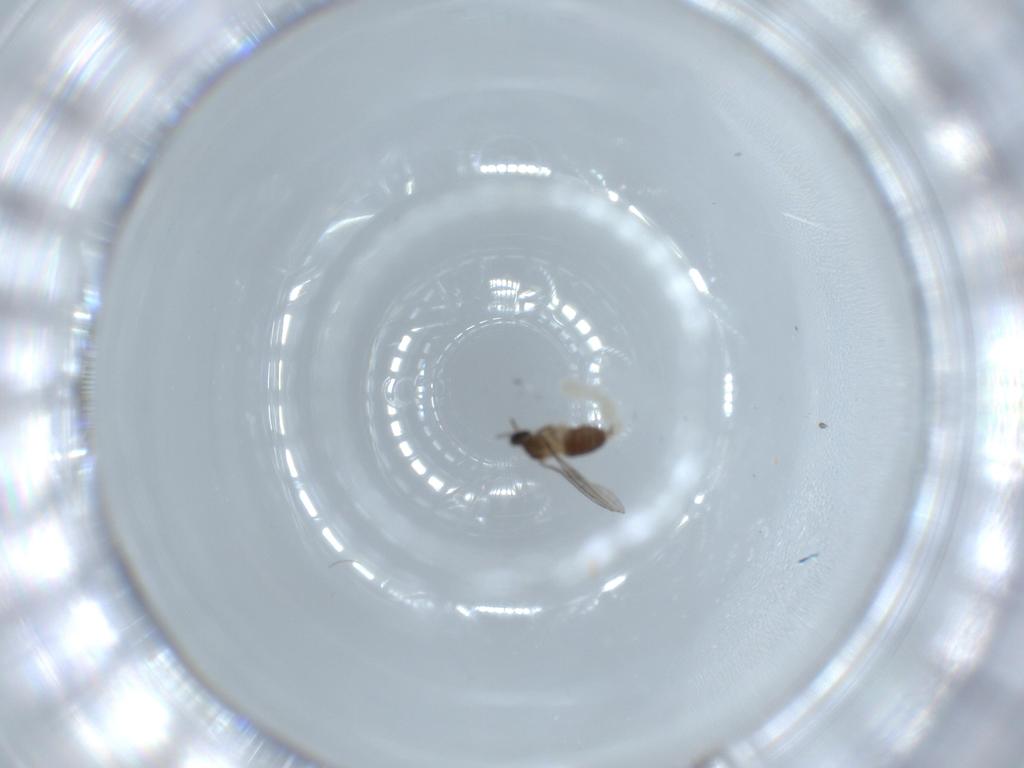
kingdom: Animalia
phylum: Arthropoda
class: Insecta
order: Diptera
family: Cecidomyiidae
